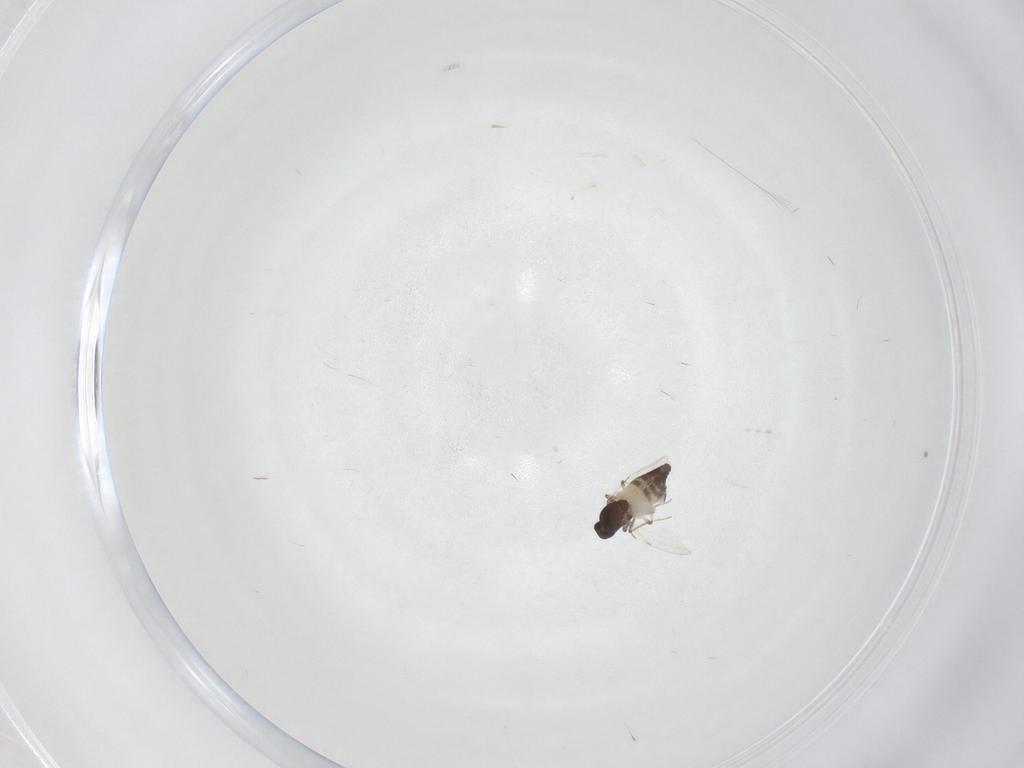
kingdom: Animalia
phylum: Arthropoda
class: Insecta
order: Diptera
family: Ceratopogonidae
